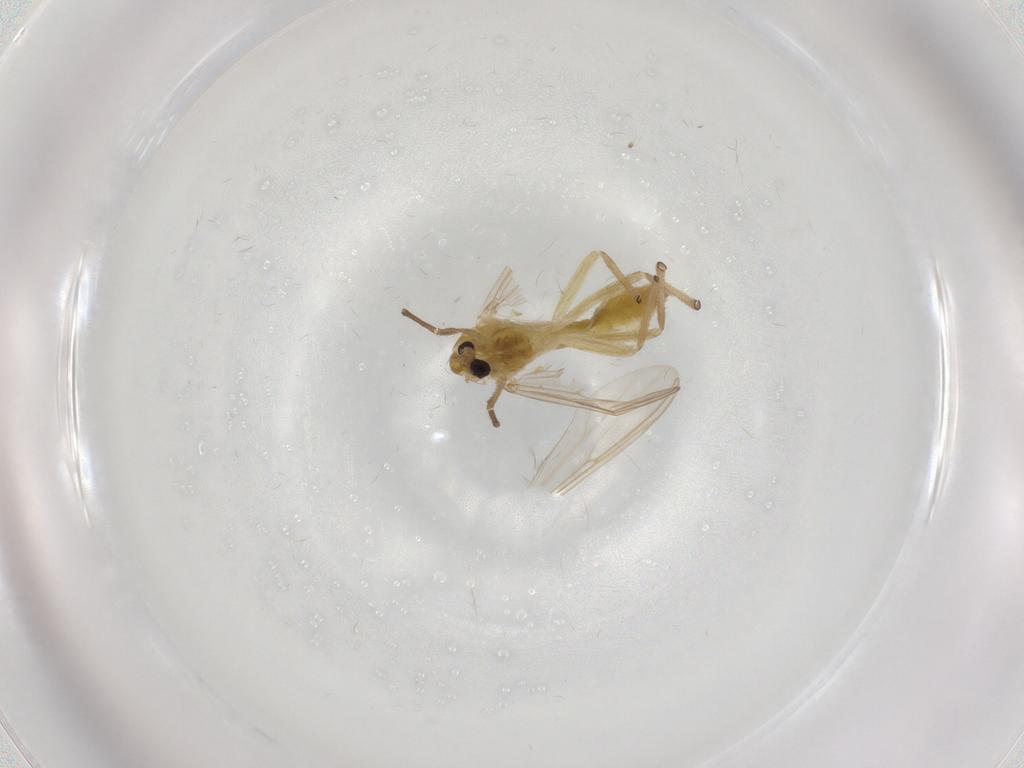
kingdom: Animalia
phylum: Arthropoda
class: Insecta
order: Diptera
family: Chironomidae
